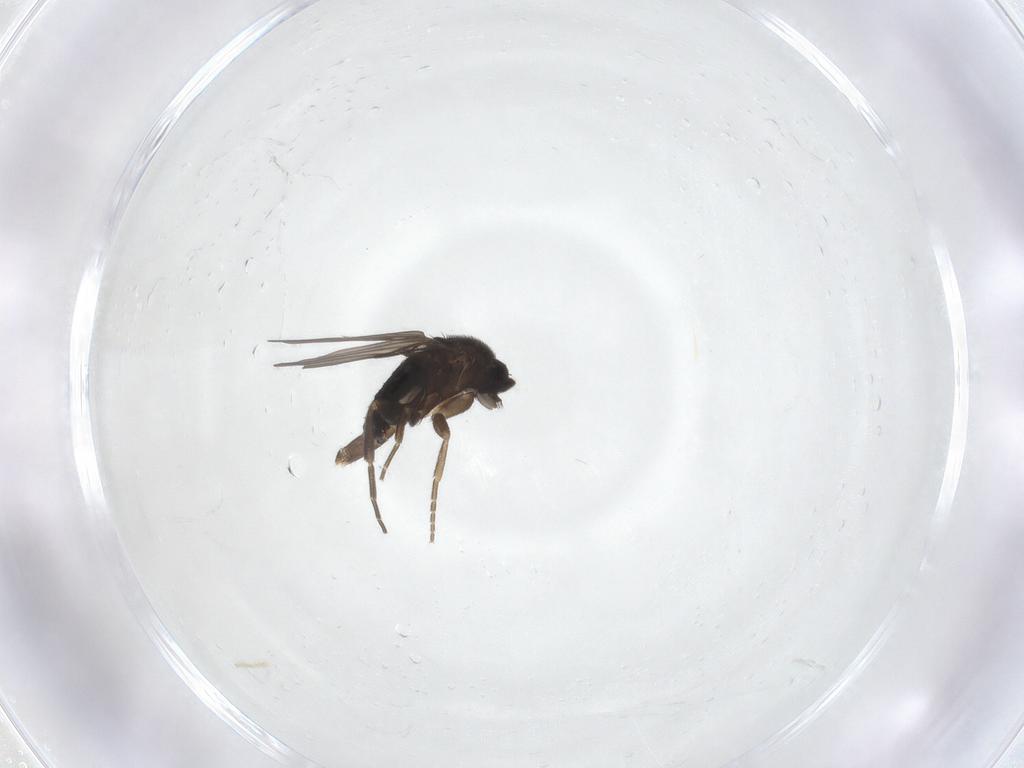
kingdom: Animalia
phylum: Arthropoda
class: Insecta
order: Diptera
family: Phoridae
